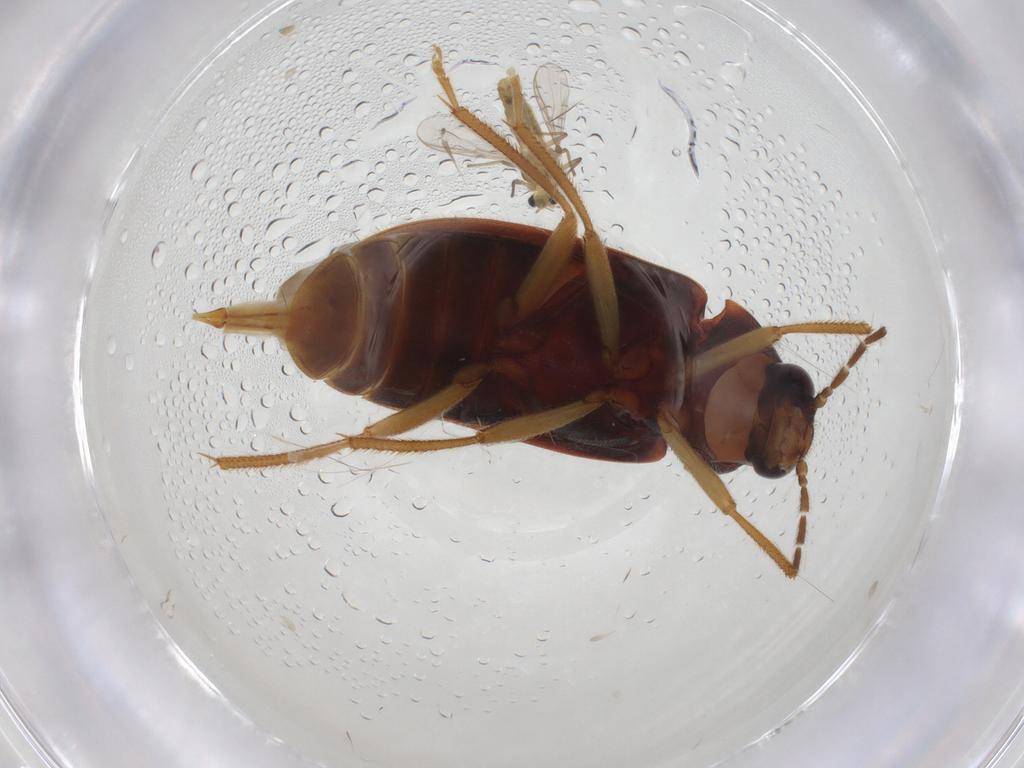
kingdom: Animalia
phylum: Arthropoda
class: Insecta
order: Coleoptera
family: Ptilodactylidae
